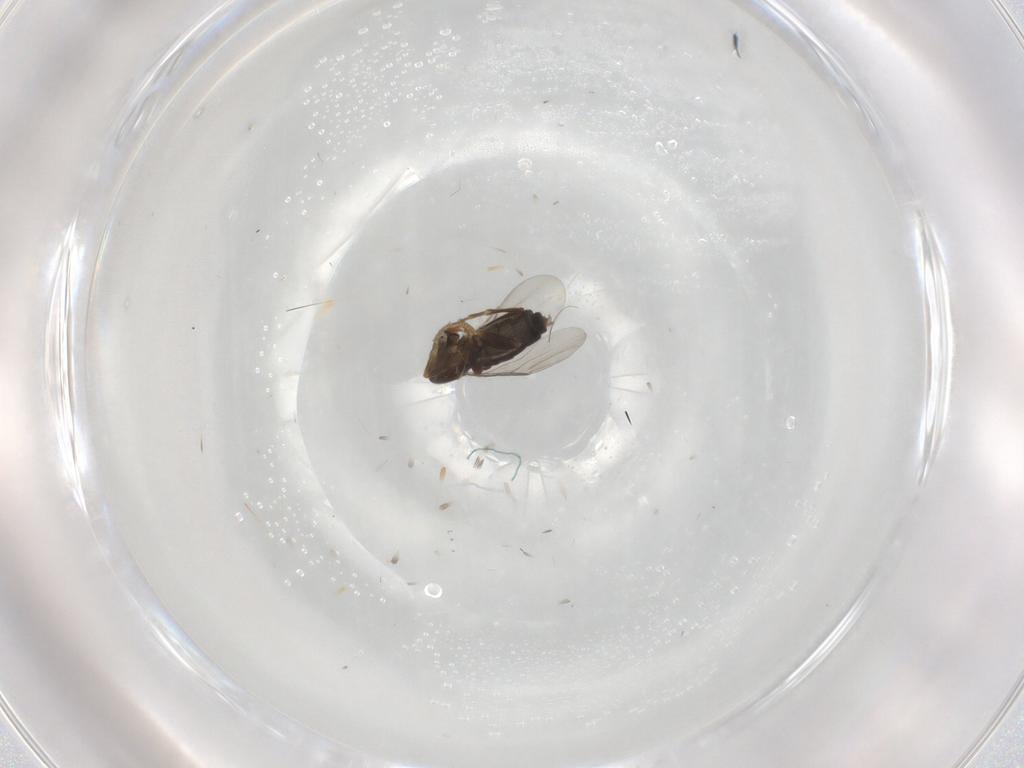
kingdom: Animalia
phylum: Arthropoda
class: Insecta
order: Diptera
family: Phoridae
